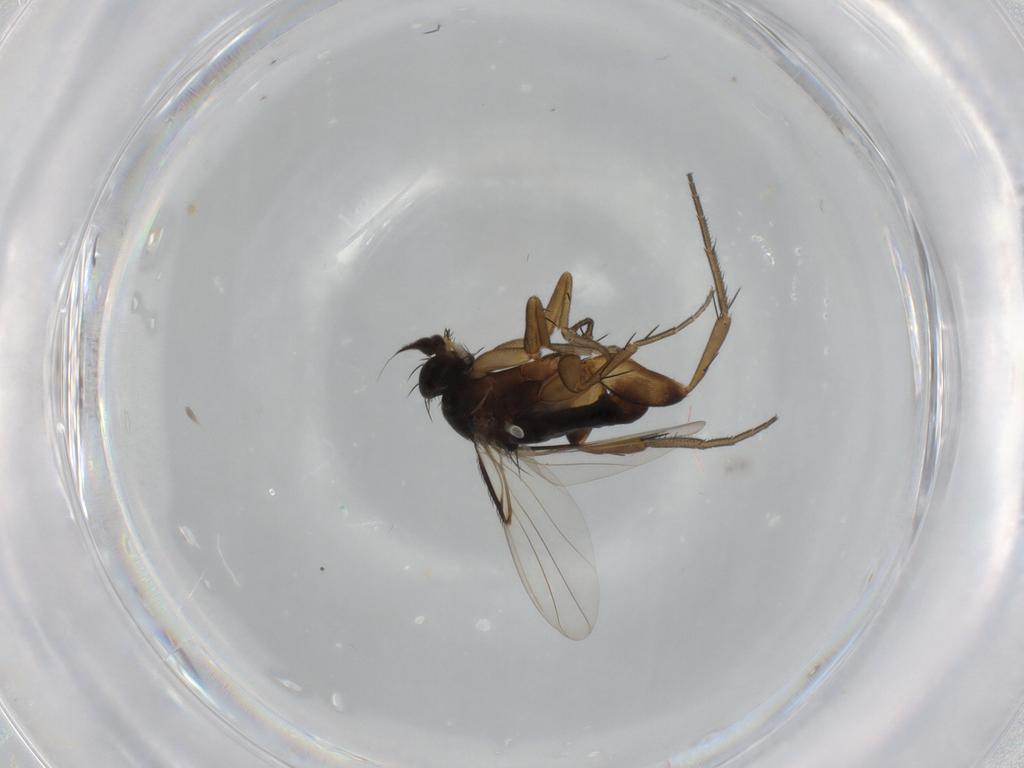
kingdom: Animalia
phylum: Arthropoda
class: Insecta
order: Diptera
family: Phoridae
